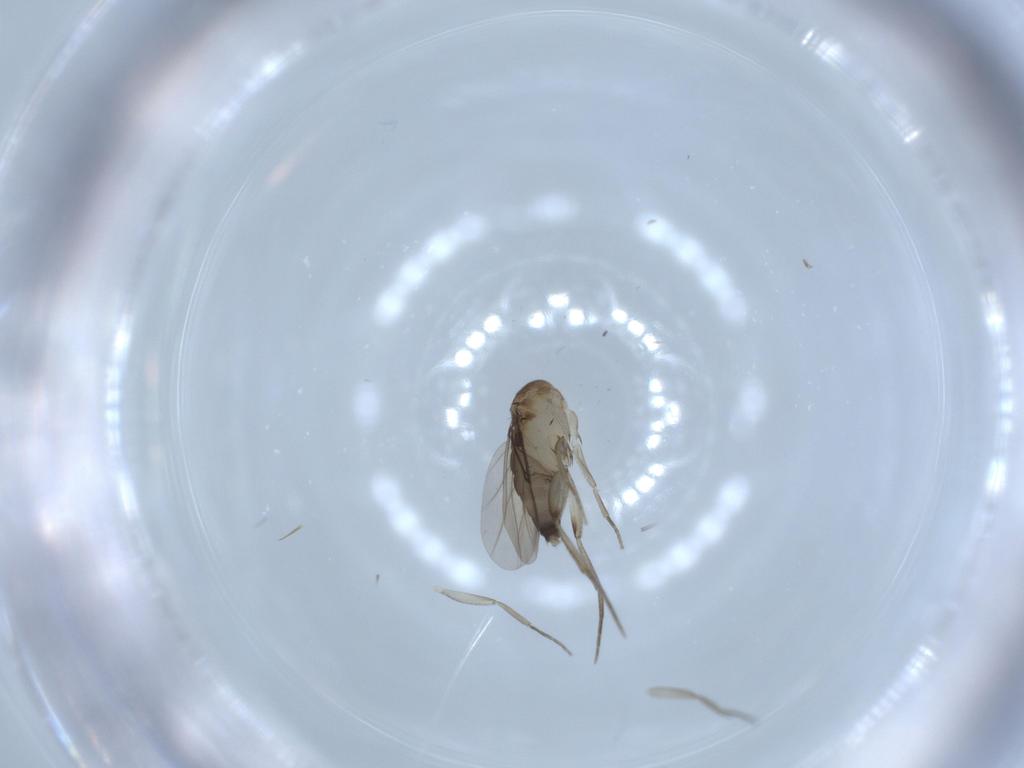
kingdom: Animalia
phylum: Arthropoda
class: Insecta
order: Diptera
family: Phoridae
